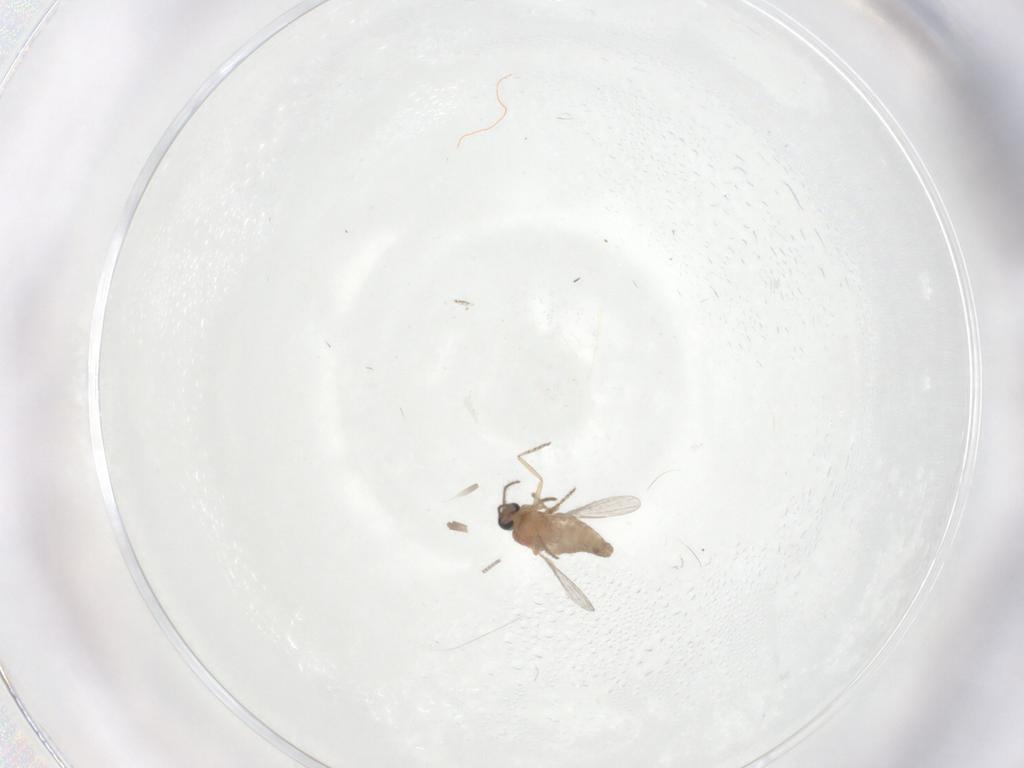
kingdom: Animalia
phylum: Arthropoda
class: Insecta
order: Diptera
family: Ceratopogonidae
